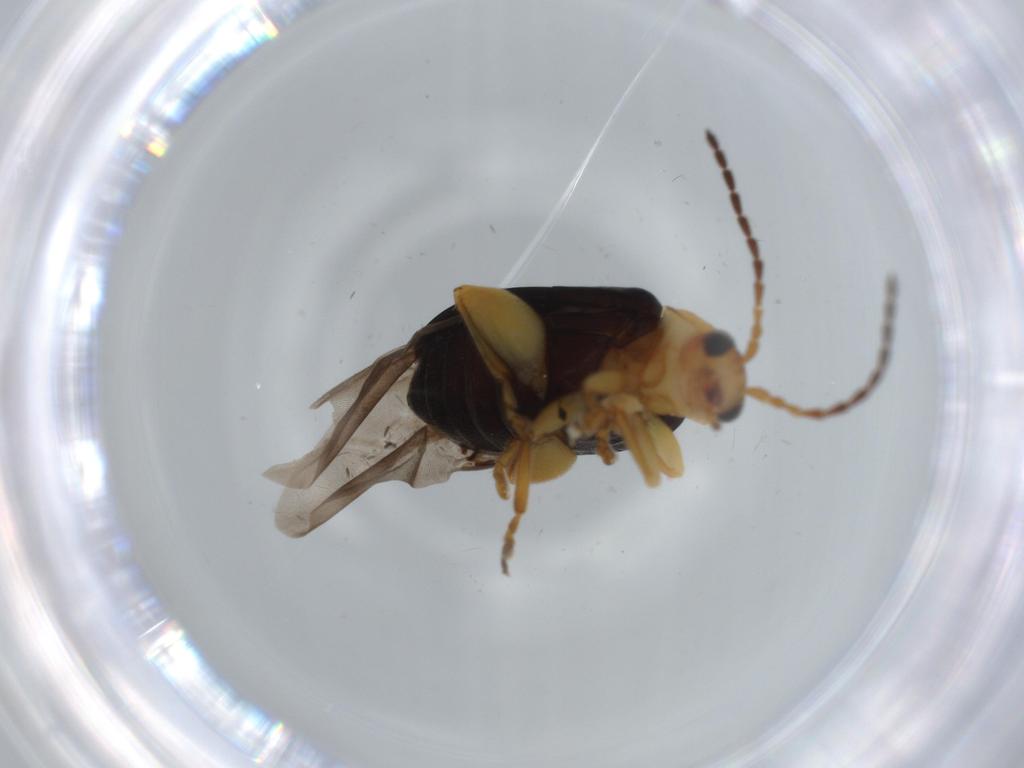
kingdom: Animalia
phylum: Arthropoda
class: Insecta
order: Coleoptera
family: Chrysomelidae
